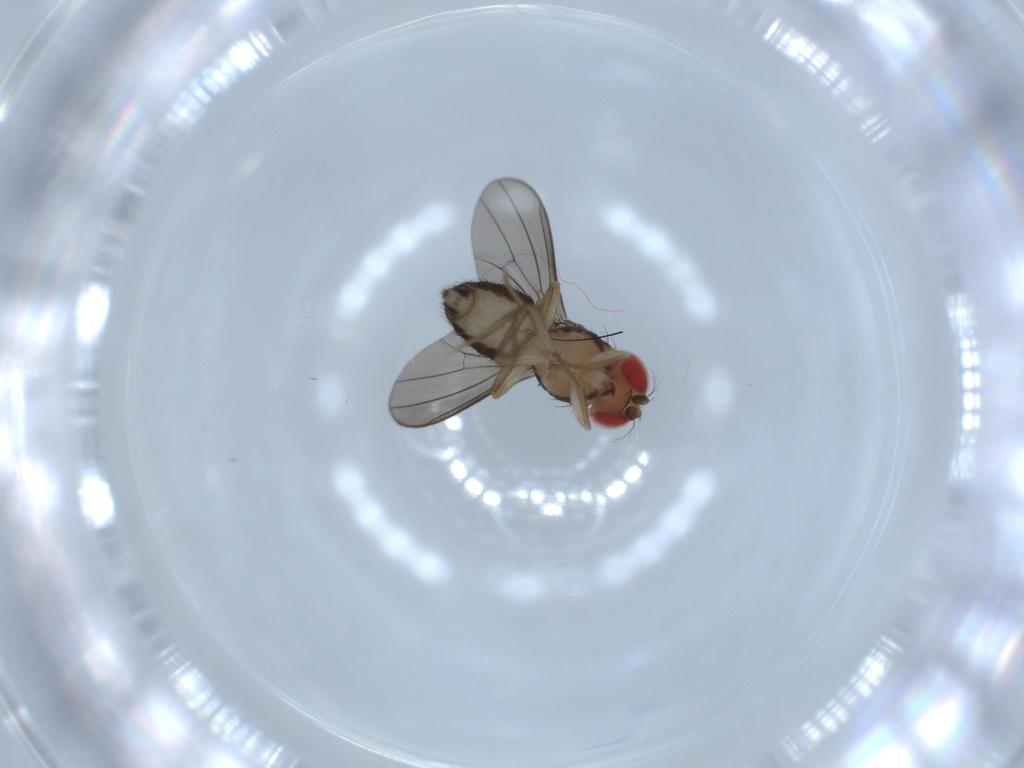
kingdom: Animalia
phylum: Arthropoda
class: Insecta
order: Diptera
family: Drosophilidae
